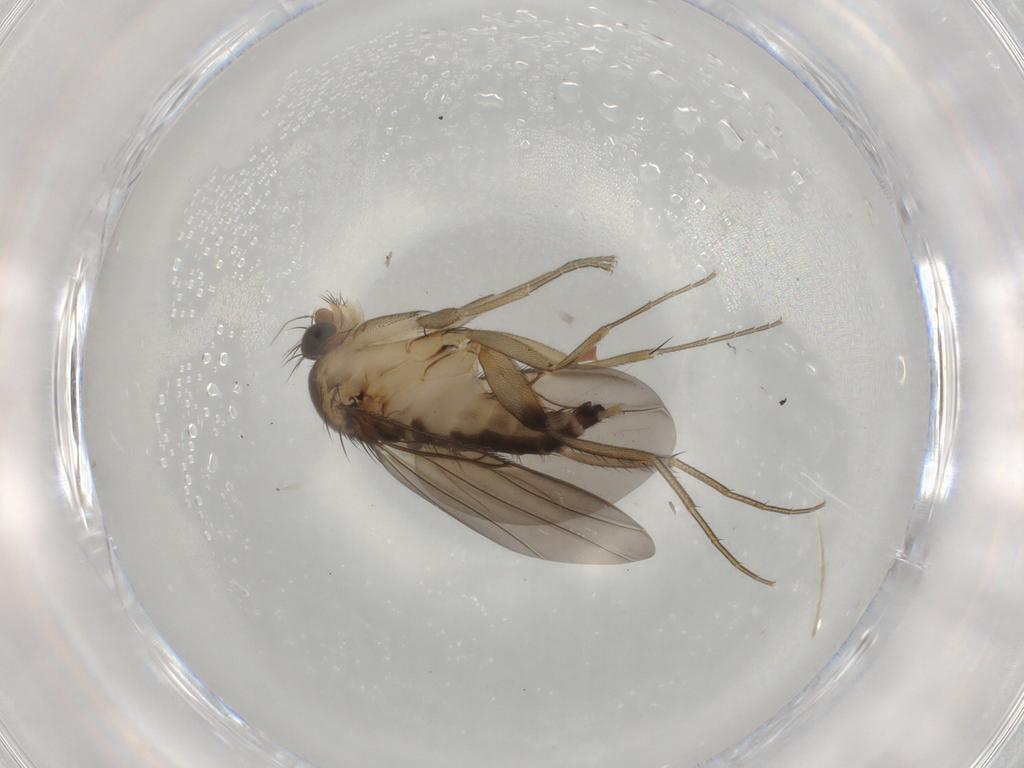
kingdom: Animalia
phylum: Arthropoda
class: Insecta
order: Diptera
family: Phoridae
